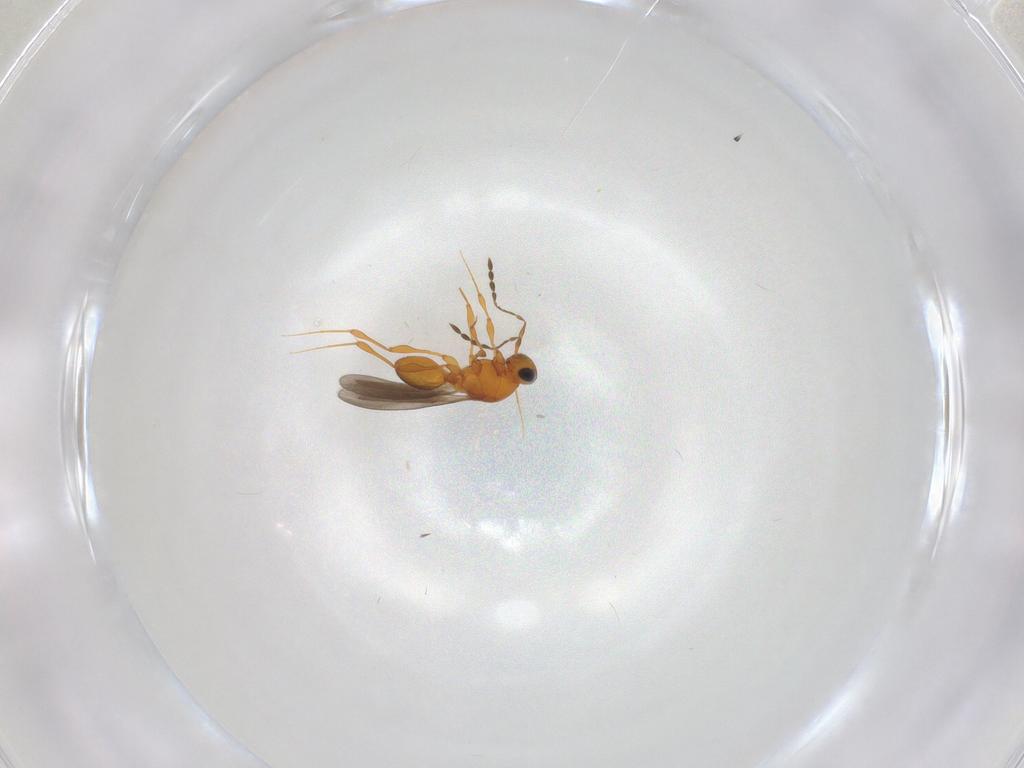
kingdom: Animalia
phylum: Arthropoda
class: Insecta
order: Hymenoptera
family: Platygastridae
